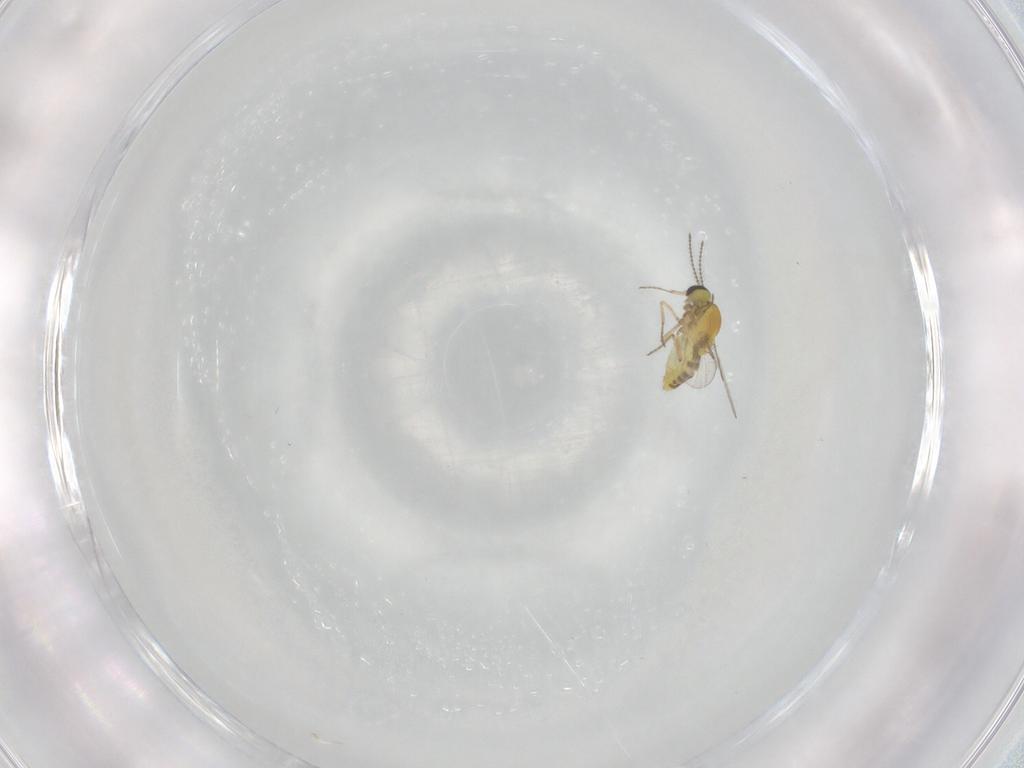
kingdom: Animalia
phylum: Arthropoda
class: Insecta
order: Diptera
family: Ceratopogonidae
